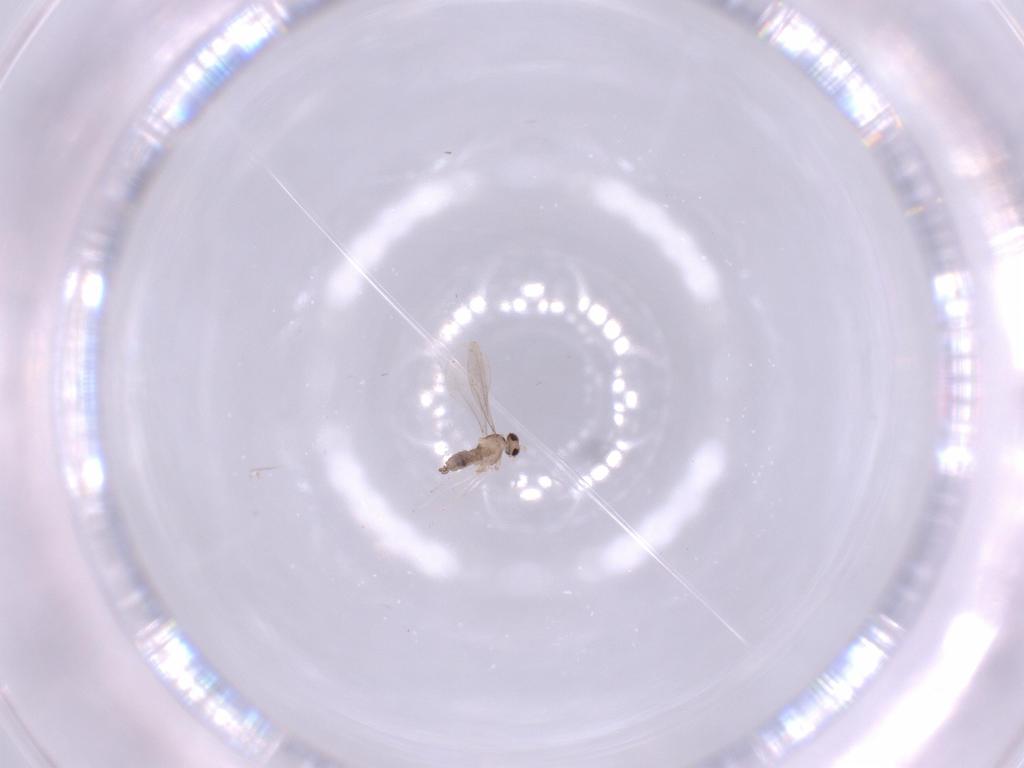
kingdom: Animalia
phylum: Arthropoda
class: Insecta
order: Diptera
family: Cecidomyiidae
